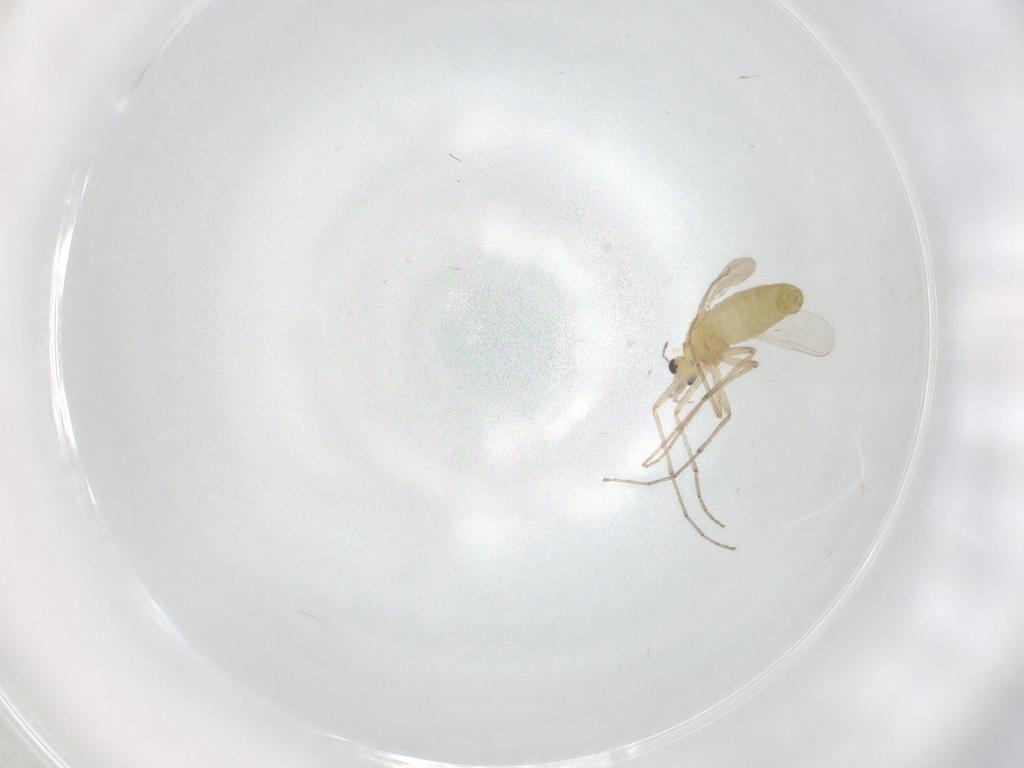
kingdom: Animalia
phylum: Arthropoda
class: Insecta
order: Diptera
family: Chironomidae
